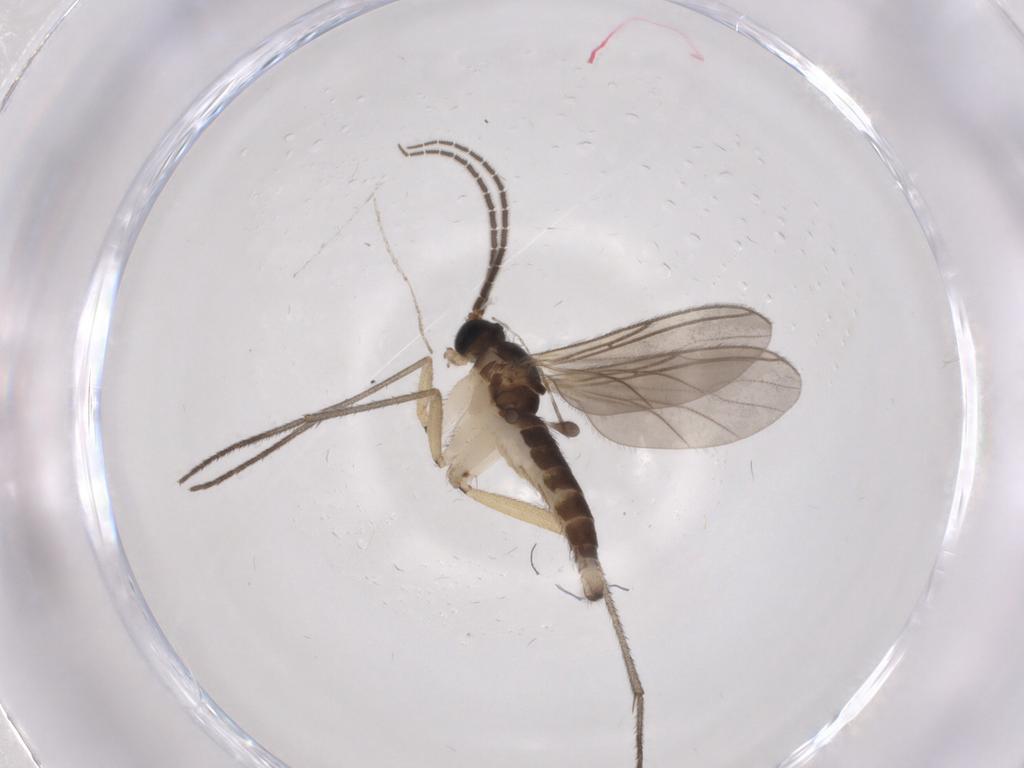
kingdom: Animalia
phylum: Arthropoda
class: Insecta
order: Diptera
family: Sciaridae
